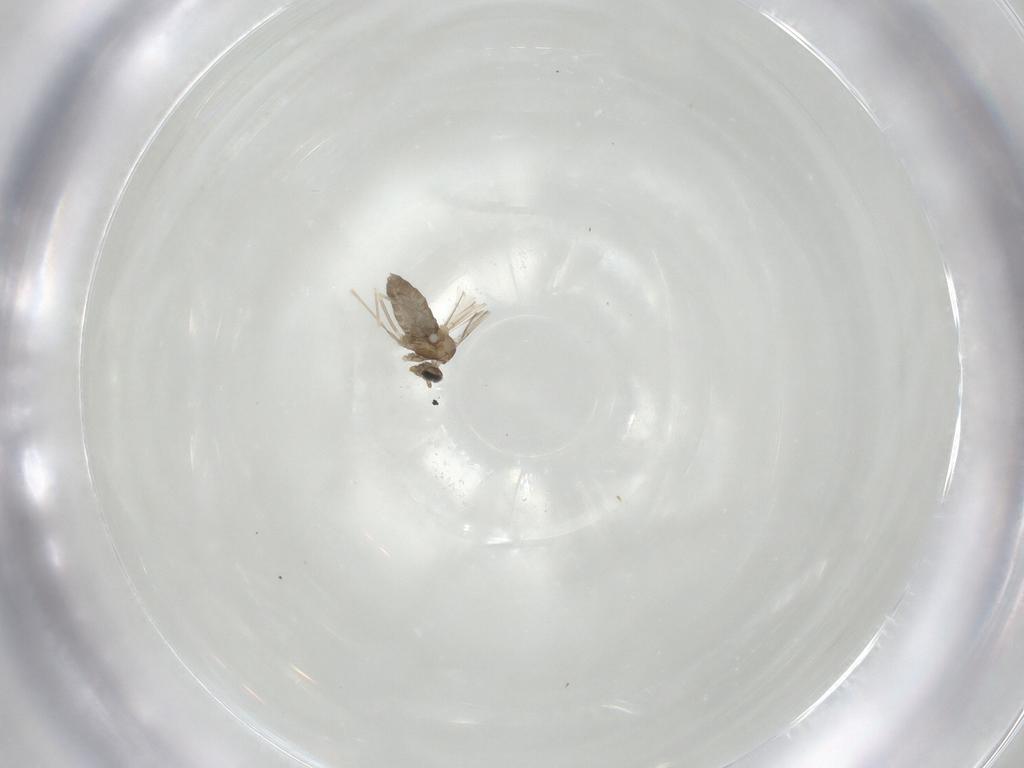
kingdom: Animalia
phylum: Arthropoda
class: Insecta
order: Diptera
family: Cecidomyiidae
